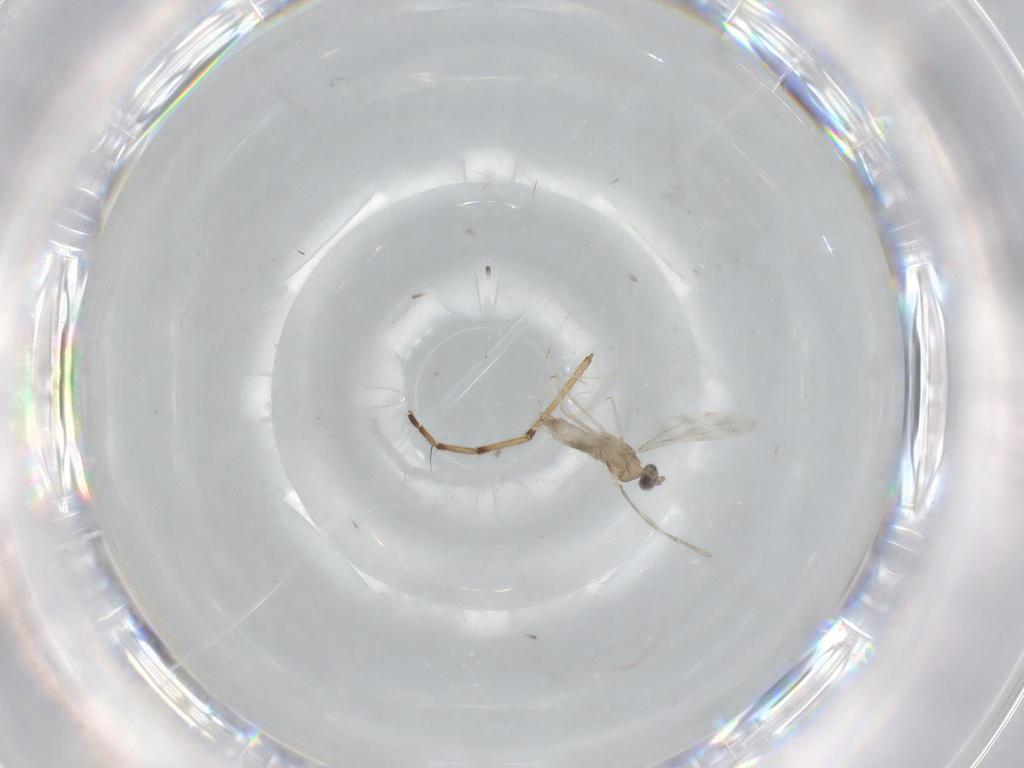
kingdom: Animalia
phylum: Arthropoda
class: Insecta
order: Diptera
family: Cecidomyiidae
